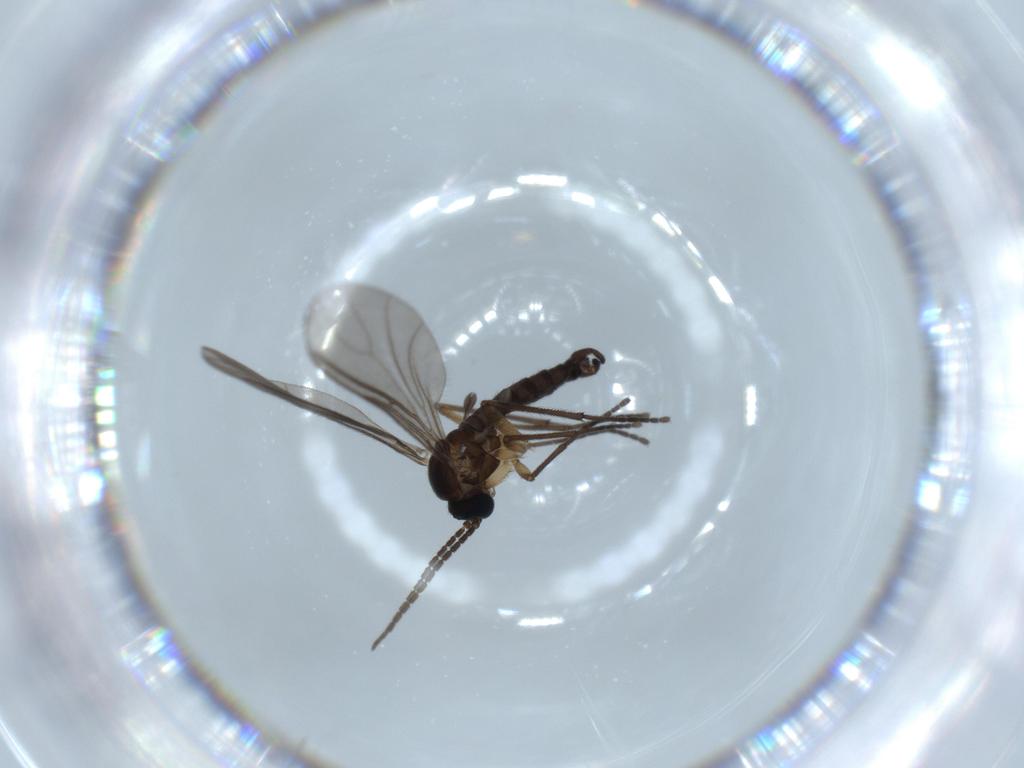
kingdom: Animalia
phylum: Arthropoda
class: Insecta
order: Diptera
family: Sciaridae
